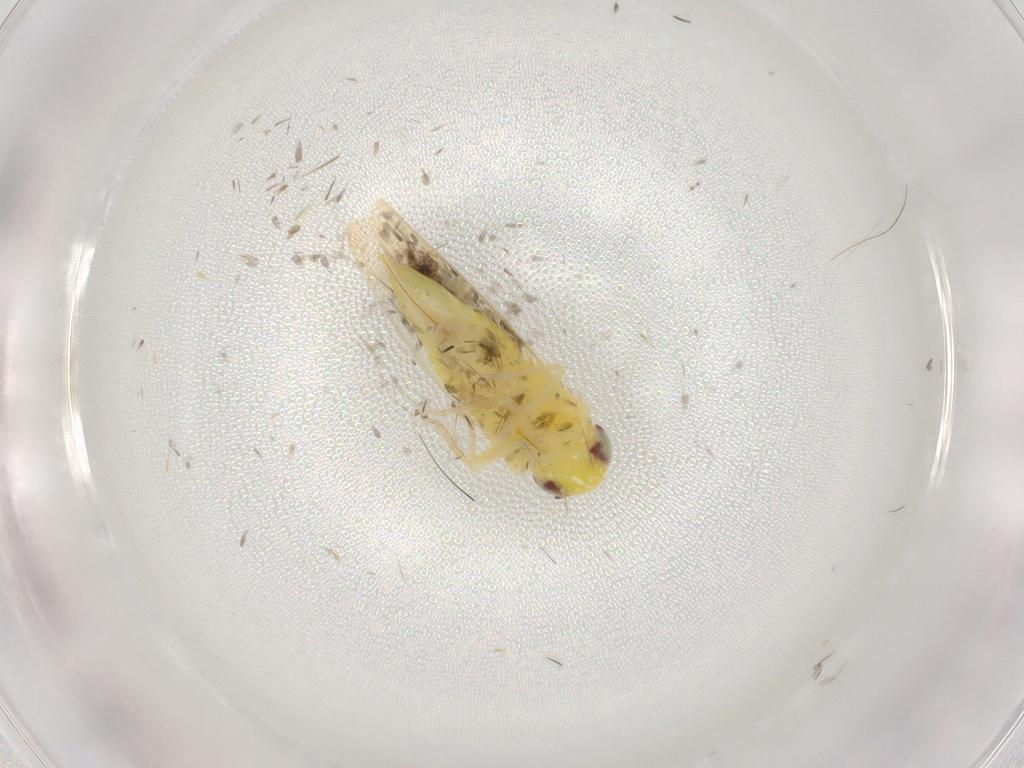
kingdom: Animalia
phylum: Arthropoda
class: Insecta
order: Hemiptera
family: Cicadellidae
